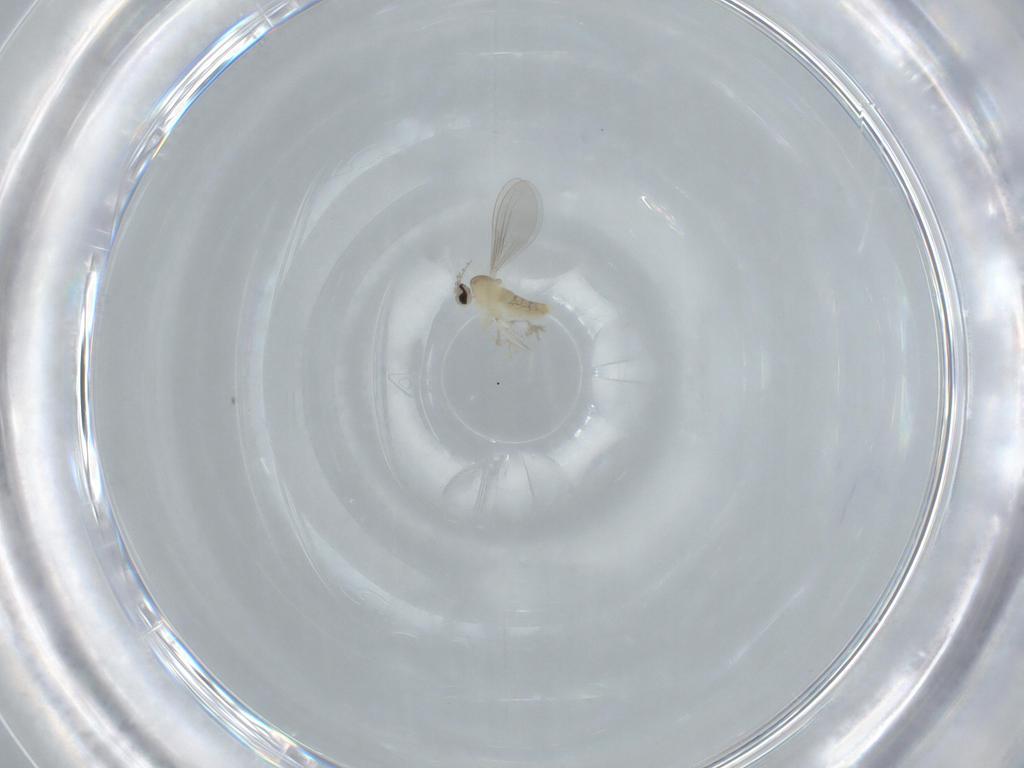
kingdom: Animalia
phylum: Arthropoda
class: Insecta
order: Diptera
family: Cecidomyiidae
